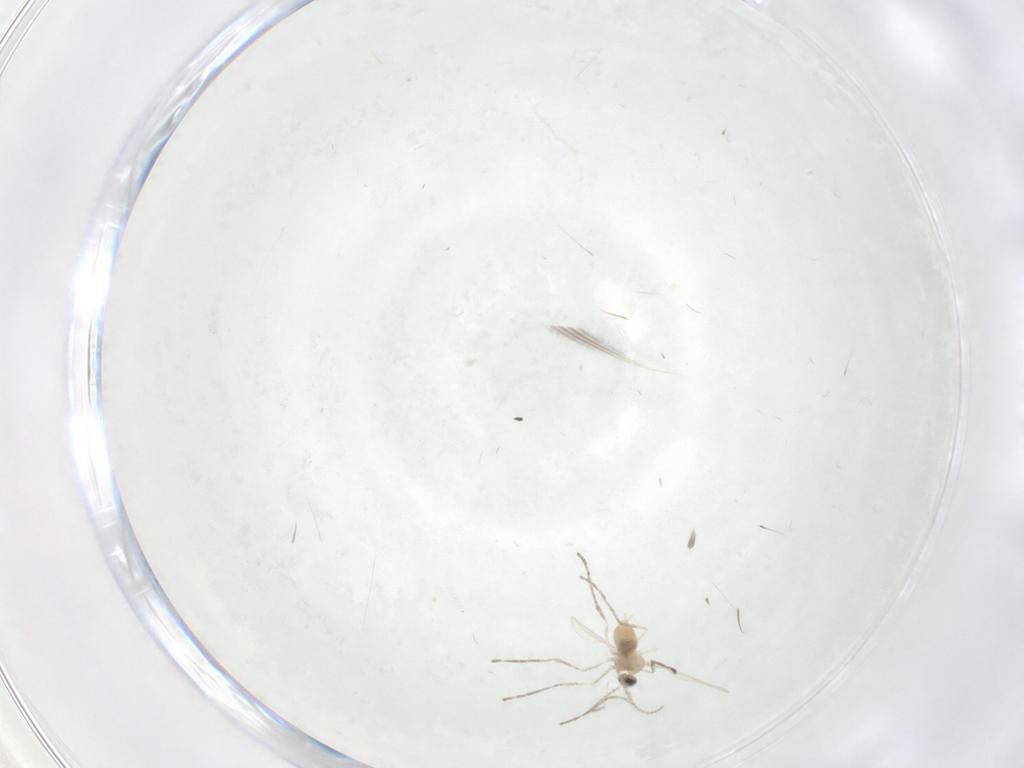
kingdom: Animalia
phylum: Arthropoda
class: Insecta
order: Diptera
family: Cecidomyiidae
